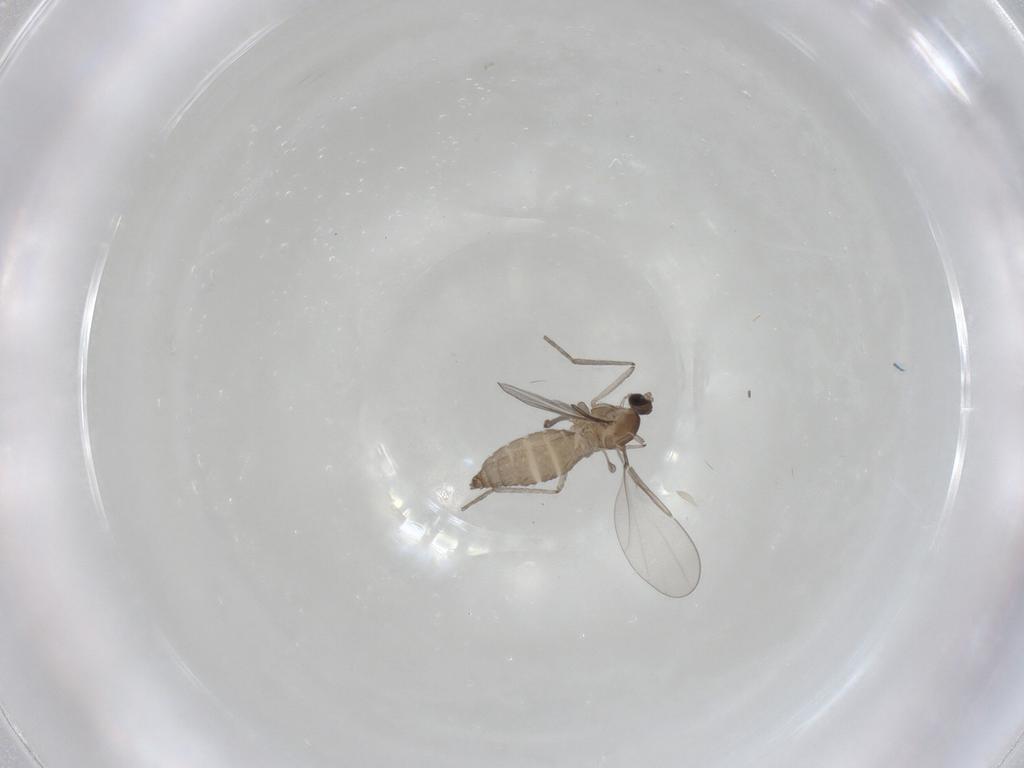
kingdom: Animalia
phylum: Arthropoda
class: Insecta
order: Diptera
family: Cecidomyiidae
